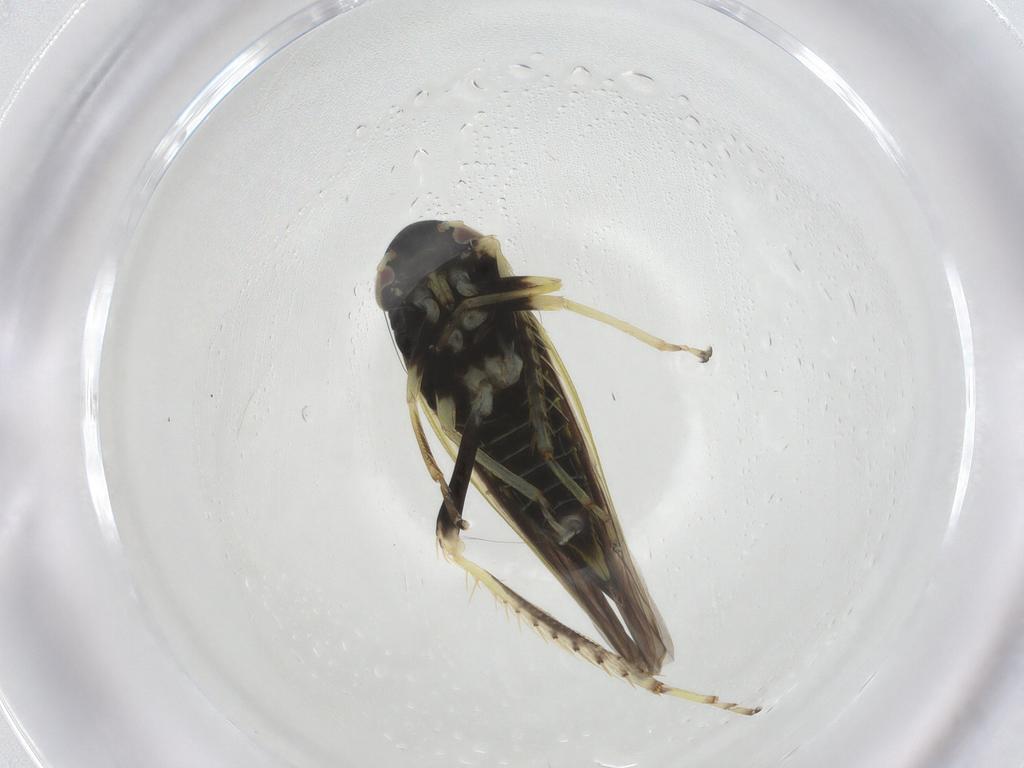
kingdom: Animalia
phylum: Arthropoda
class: Insecta
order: Hemiptera
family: Cicadellidae
